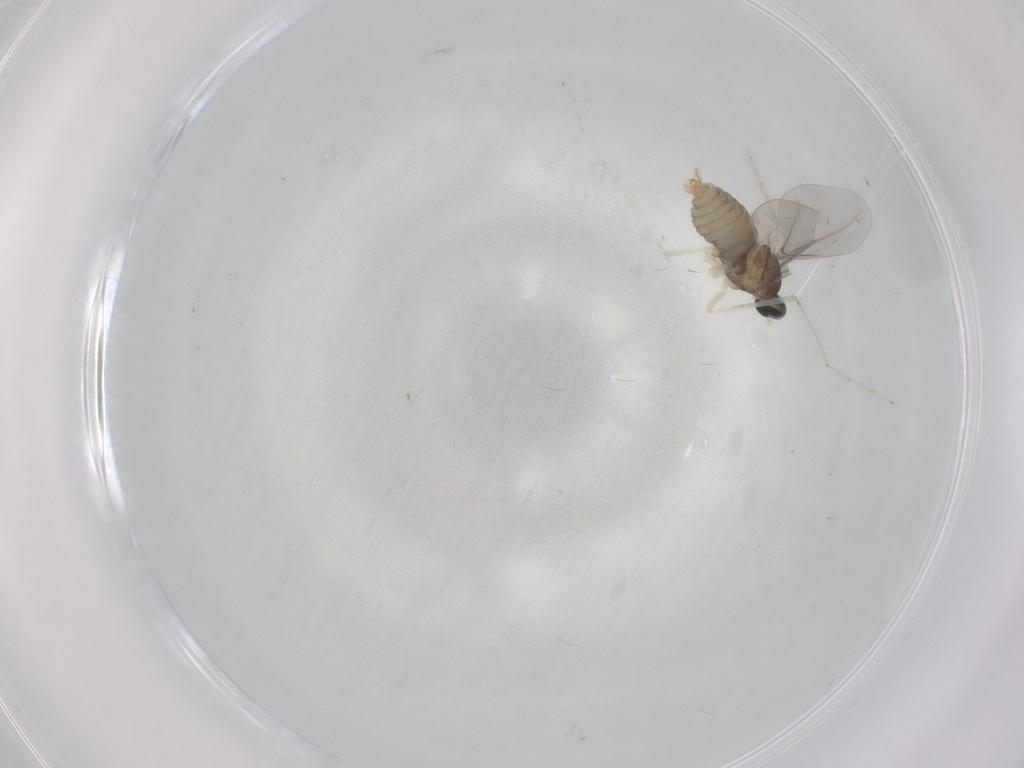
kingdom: Animalia
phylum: Arthropoda
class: Insecta
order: Diptera
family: Cecidomyiidae
